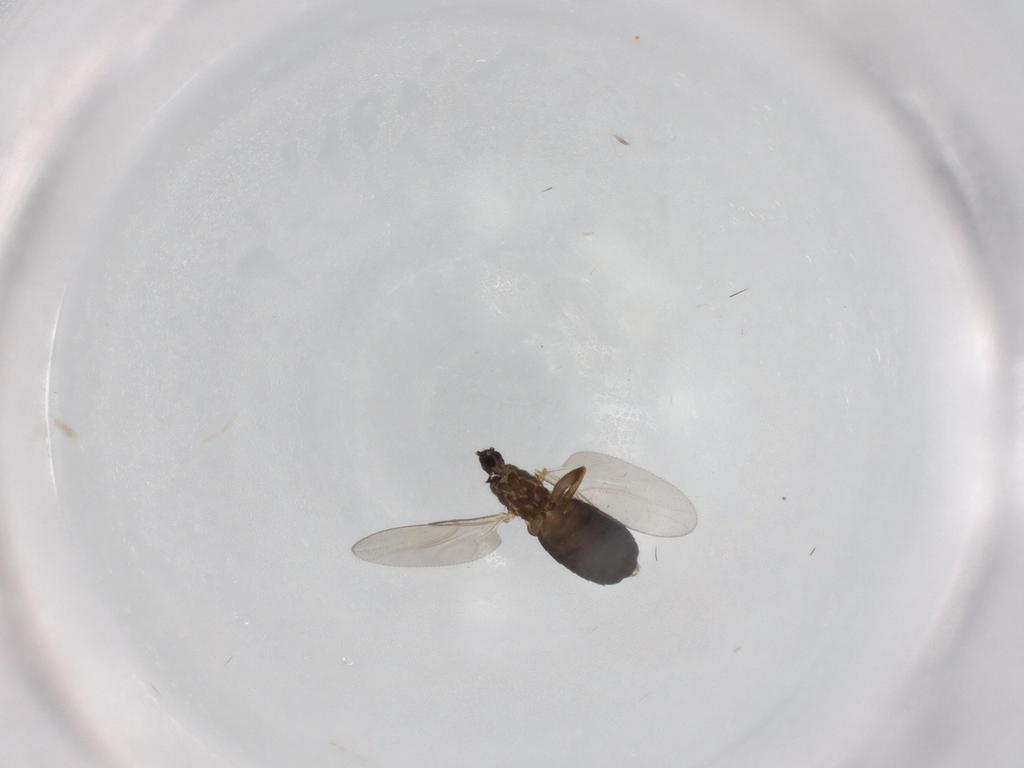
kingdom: Animalia
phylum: Arthropoda
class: Insecta
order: Diptera
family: Scatopsidae
